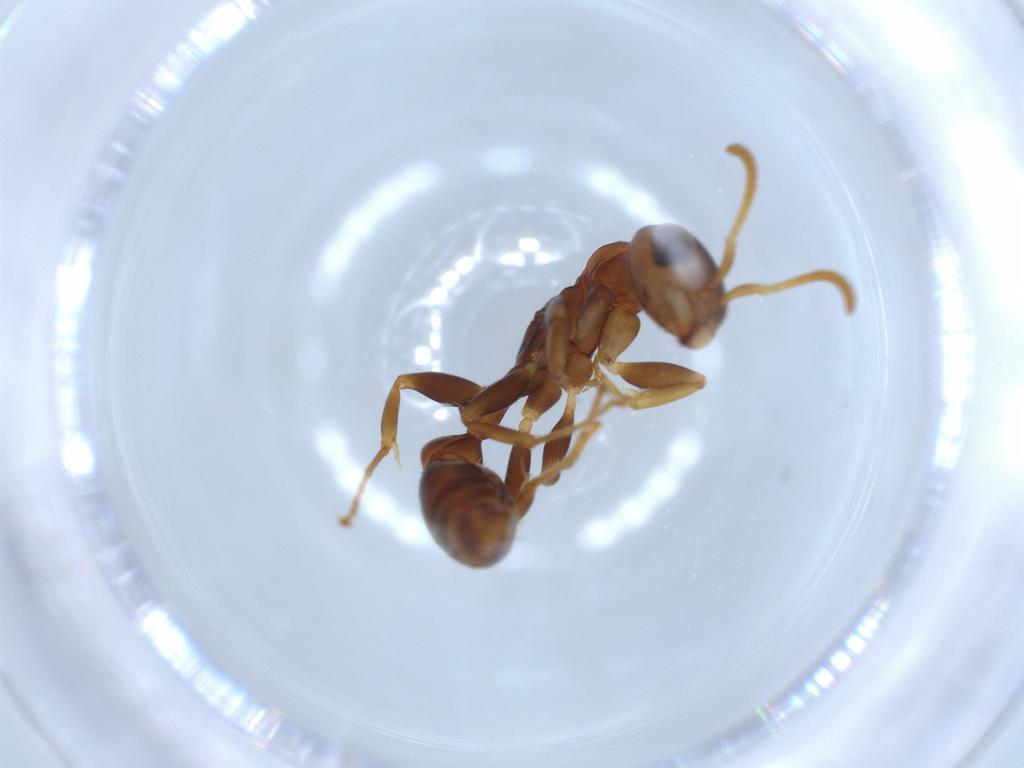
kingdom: Animalia
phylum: Arthropoda
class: Insecta
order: Hymenoptera
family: Formicidae
